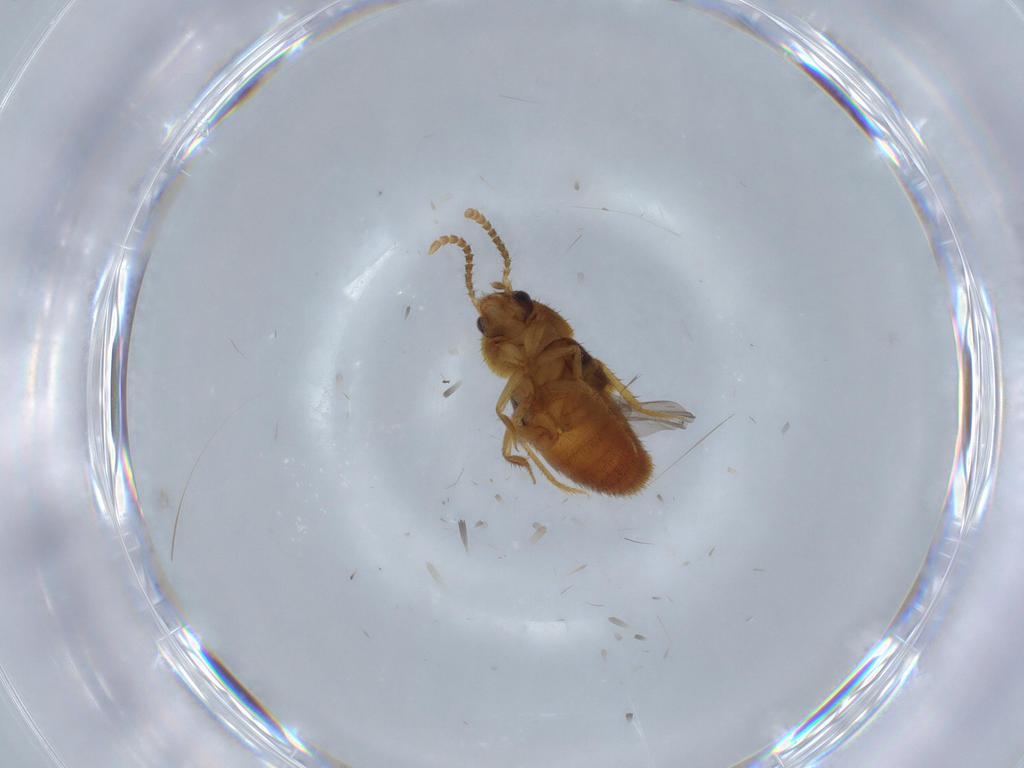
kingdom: Animalia
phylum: Arthropoda
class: Insecta
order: Coleoptera
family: Staphylinidae
